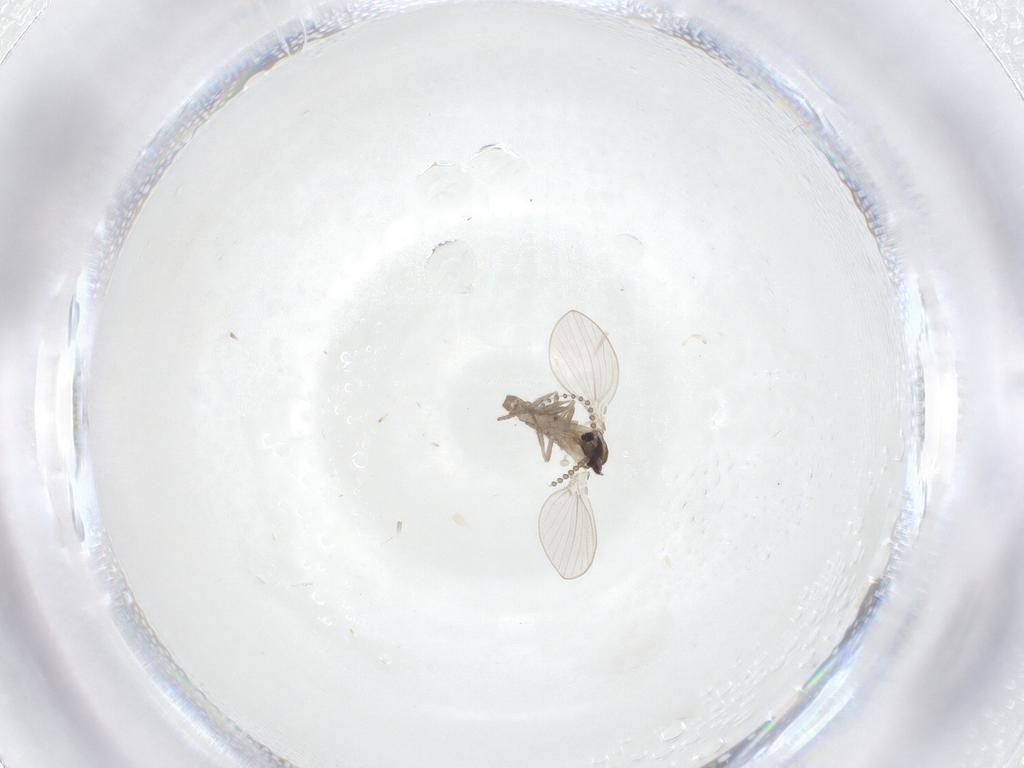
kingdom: Animalia
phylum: Arthropoda
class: Insecta
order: Diptera
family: Psychodidae
